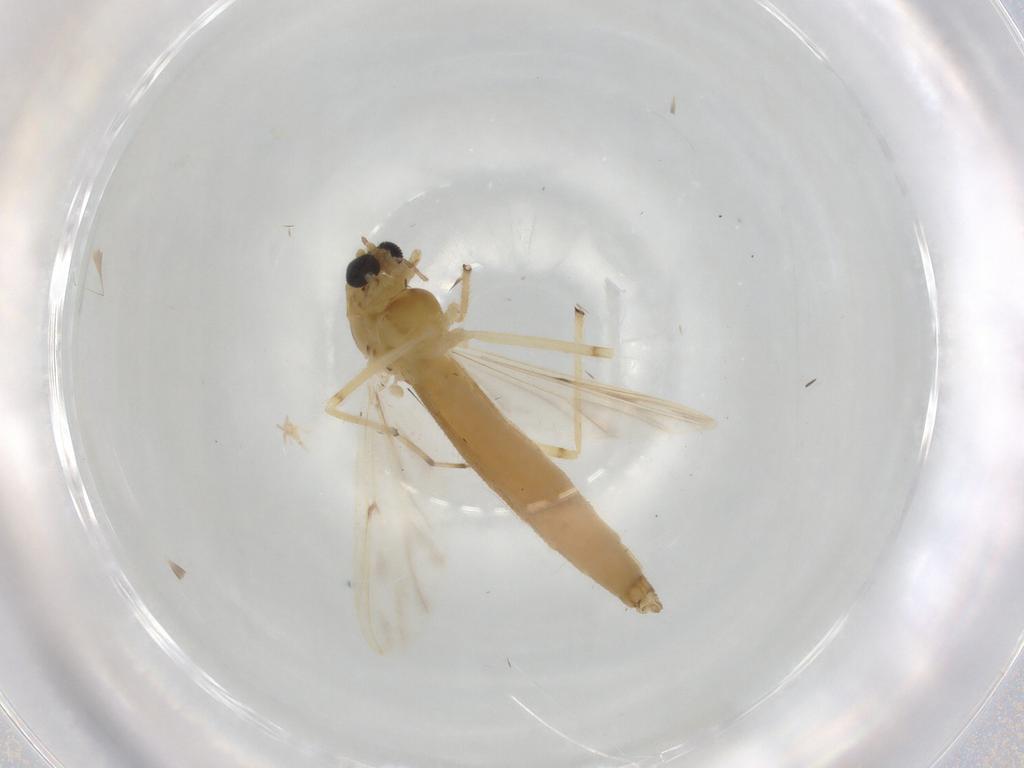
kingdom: Animalia
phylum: Arthropoda
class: Insecta
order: Diptera
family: Chironomidae
